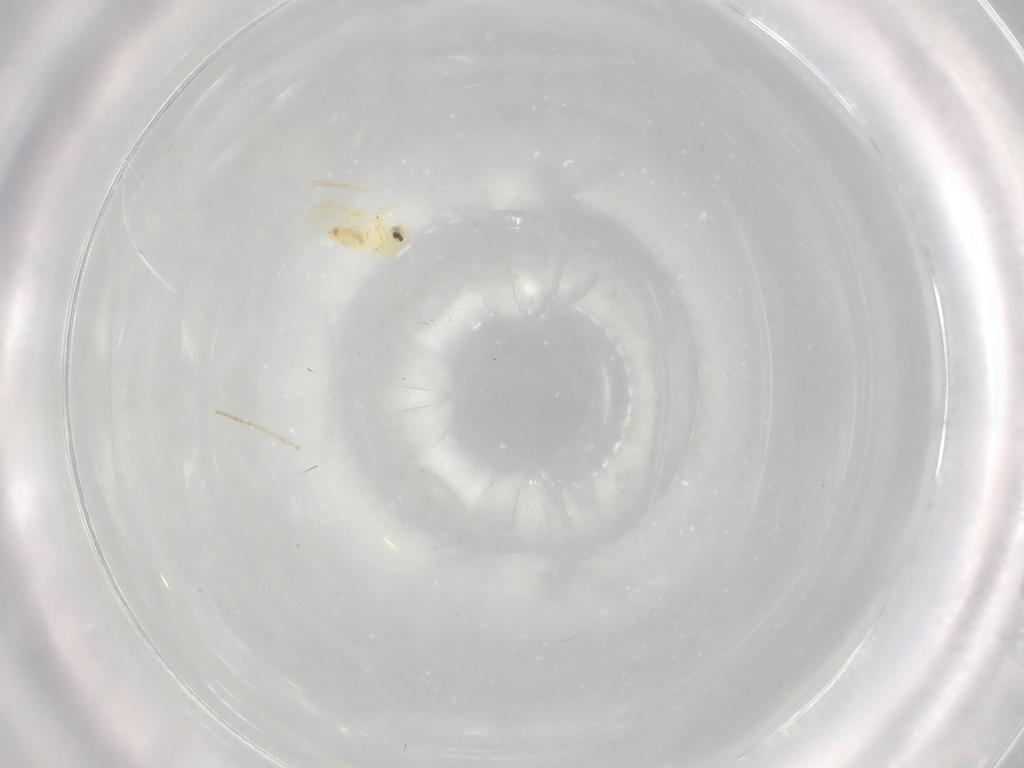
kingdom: Animalia
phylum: Arthropoda
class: Insecta
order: Hemiptera
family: Aleyrodidae
